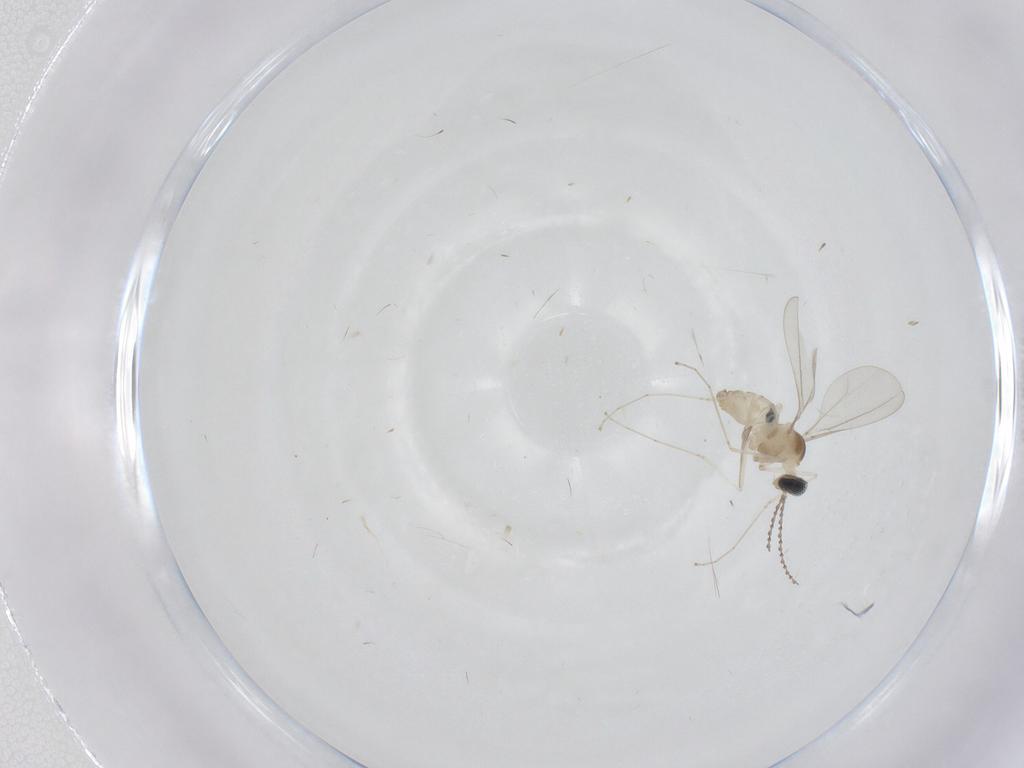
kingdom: Animalia
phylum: Arthropoda
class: Insecta
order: Diptera
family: Cecidomyiidae
